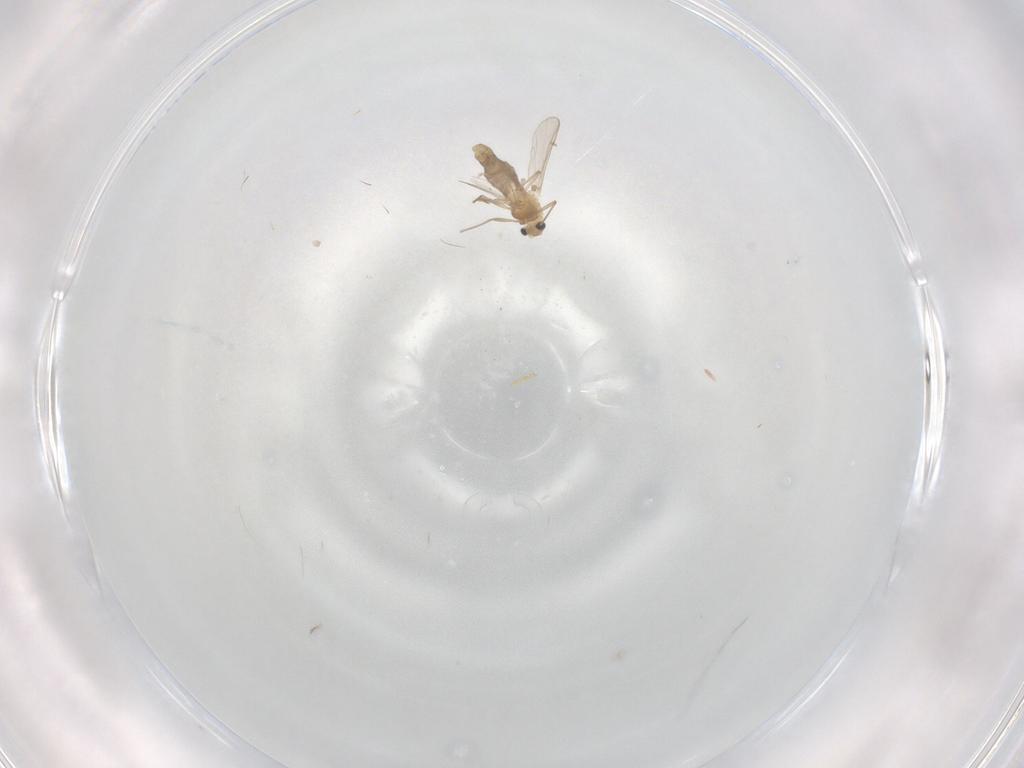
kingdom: Animalia
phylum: Arthropoda
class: Insecta
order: Diptera
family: Chironomidae
